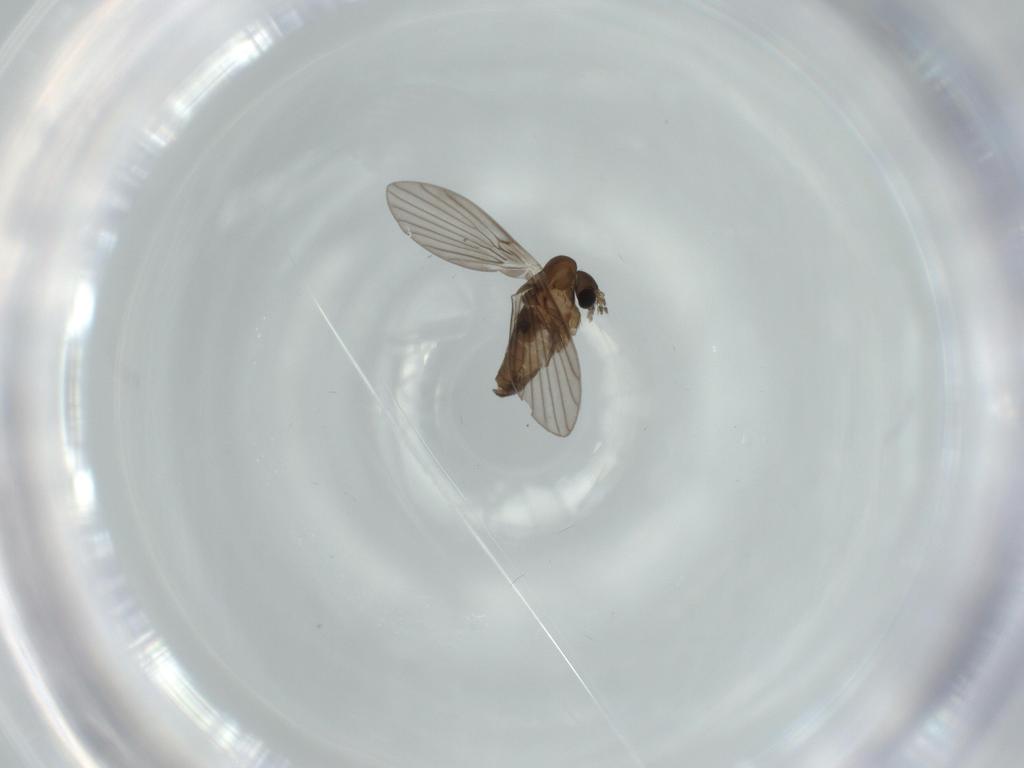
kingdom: Animalia
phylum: Arthropoda
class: Insecta
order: Diptera
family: Psychodidae
